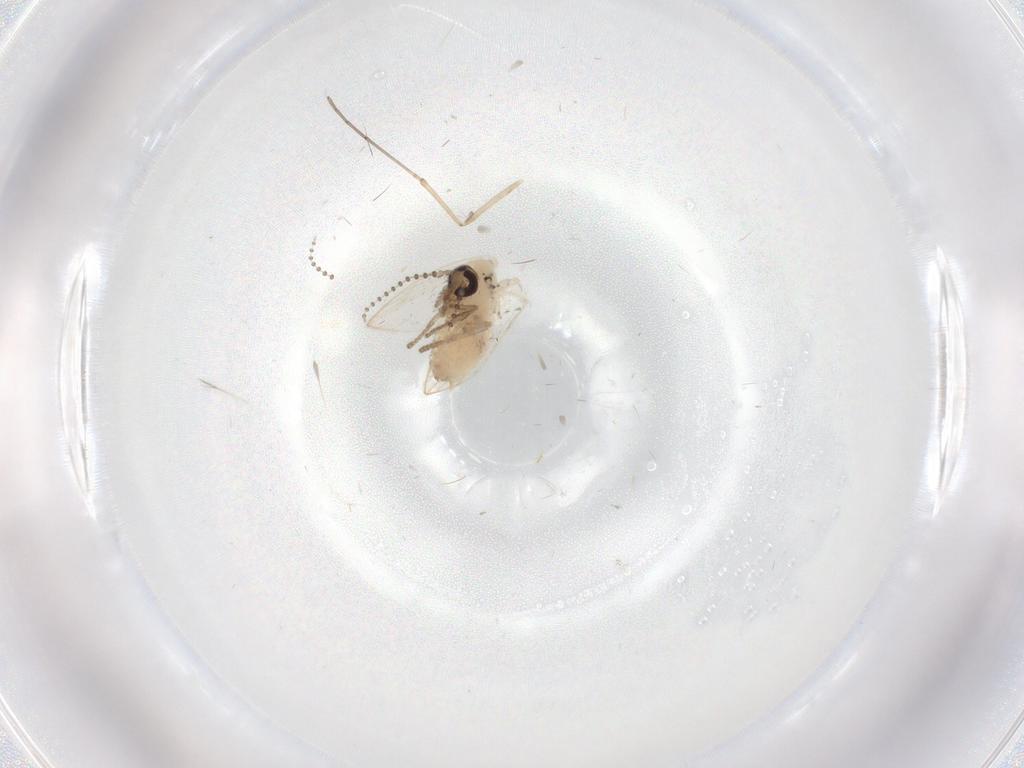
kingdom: Animalia
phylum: Arthropoda
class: Insecta
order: Diptera
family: Psychodidae
